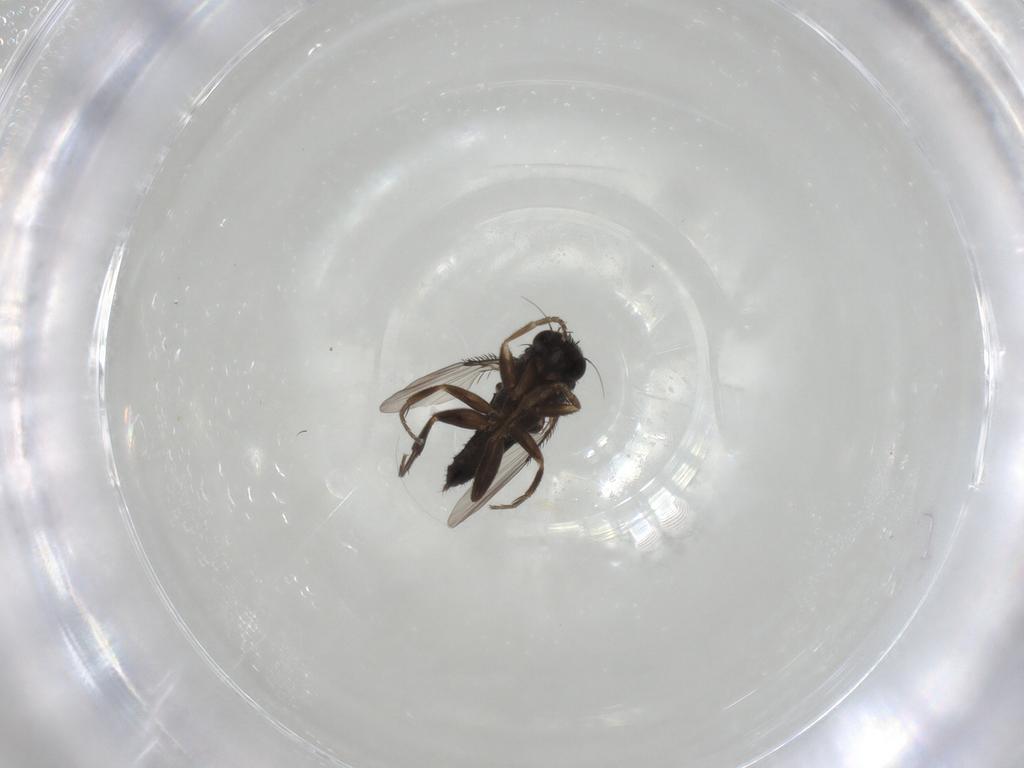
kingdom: Animalia
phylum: Arthropoda
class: Insecta
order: Diptera
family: Phoridae
